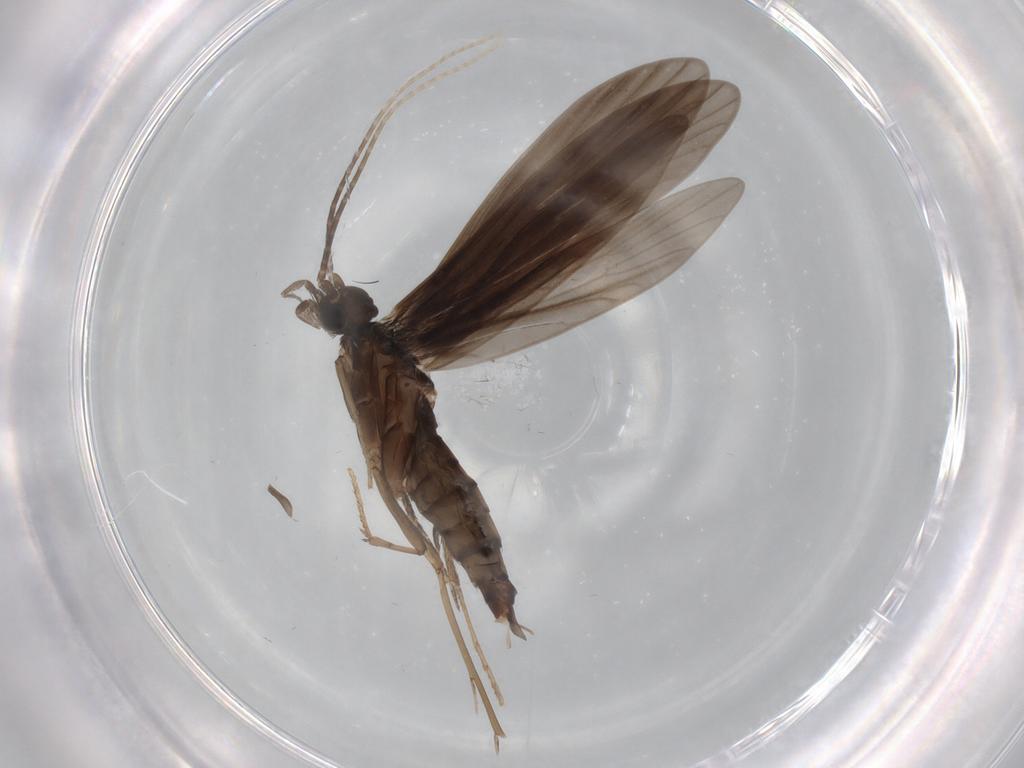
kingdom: Animalia
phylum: Arthropoda
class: Insecta
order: Trichoptera
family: Xiphocentronidae
